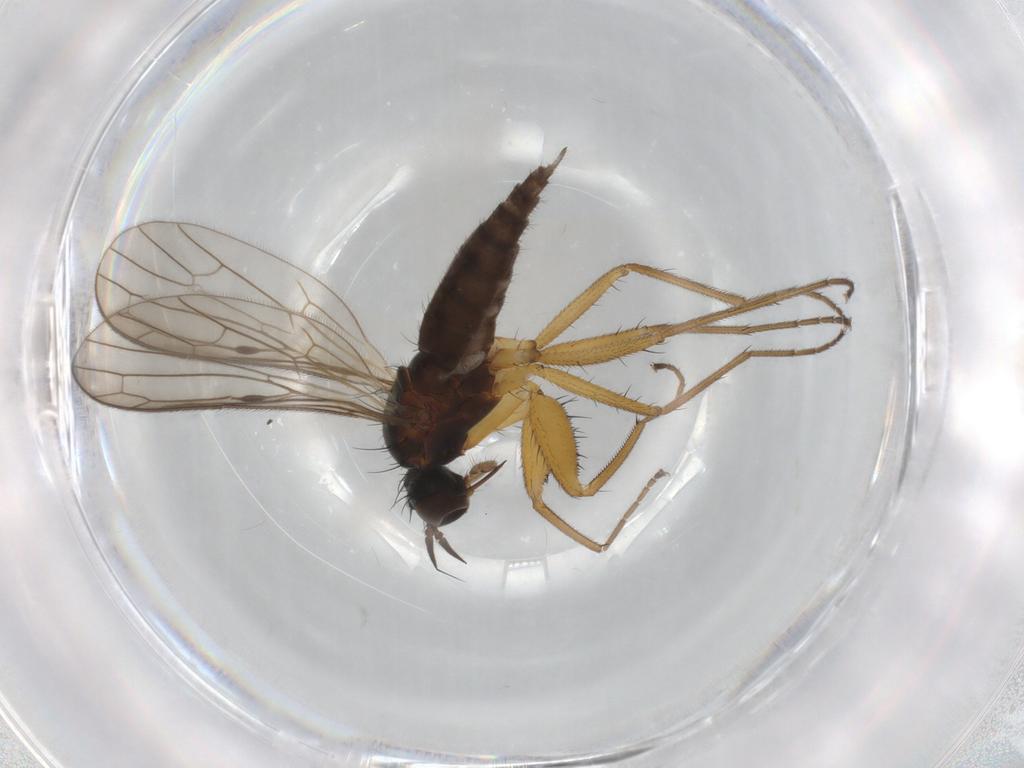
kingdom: Animalia
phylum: Arthropoda
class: Insecta
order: Diptera
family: Empididae
